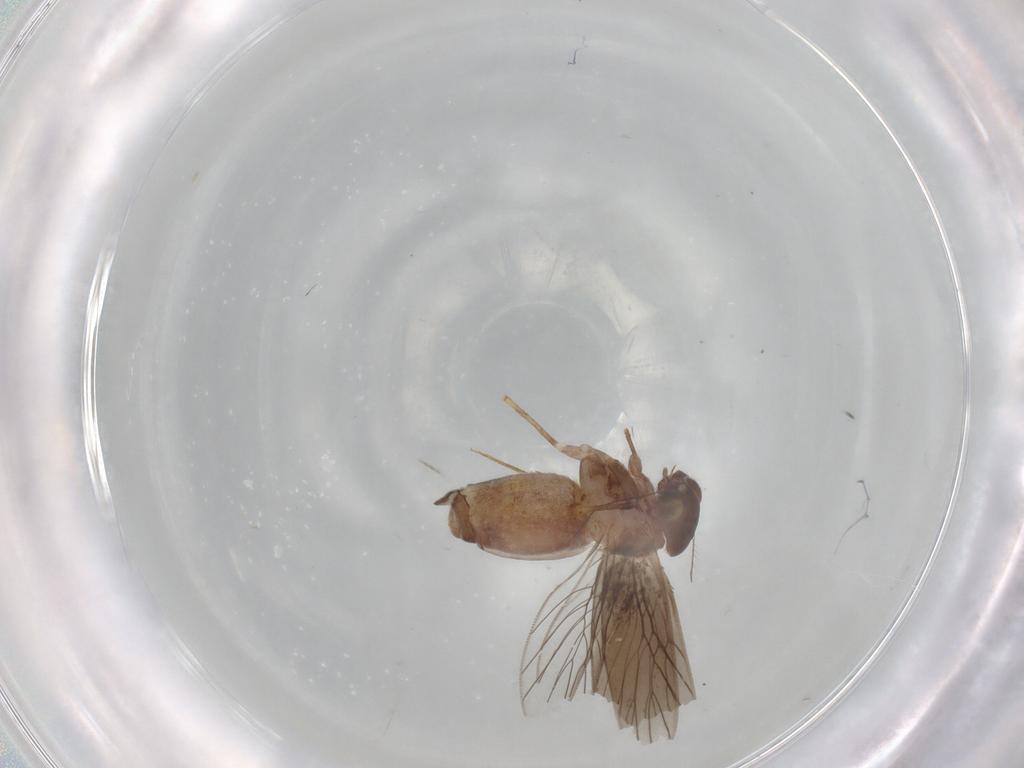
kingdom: Animalia
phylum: Arthropoda
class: Insecta
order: Psocodea
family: Lepidopsocidae
